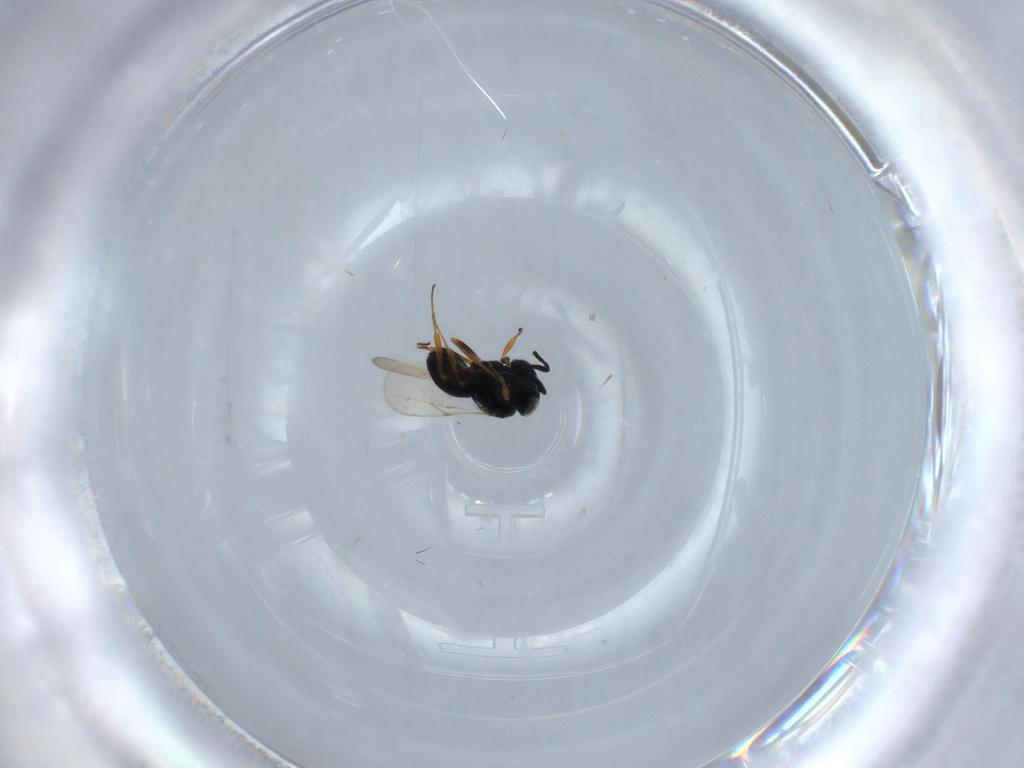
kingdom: Animalia
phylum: Arthropoda
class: Insecta
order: Hymenoptera
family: Scelionidae
